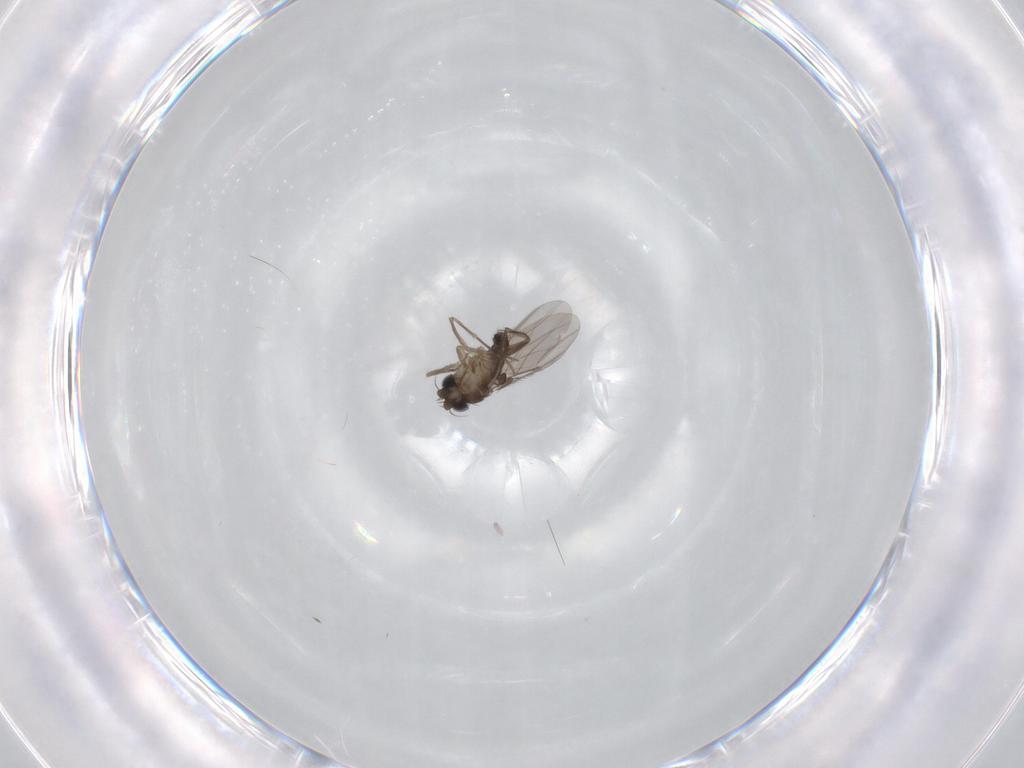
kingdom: Animalia
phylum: Arthropoda
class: Insecta
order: Diptera
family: Phoridae
